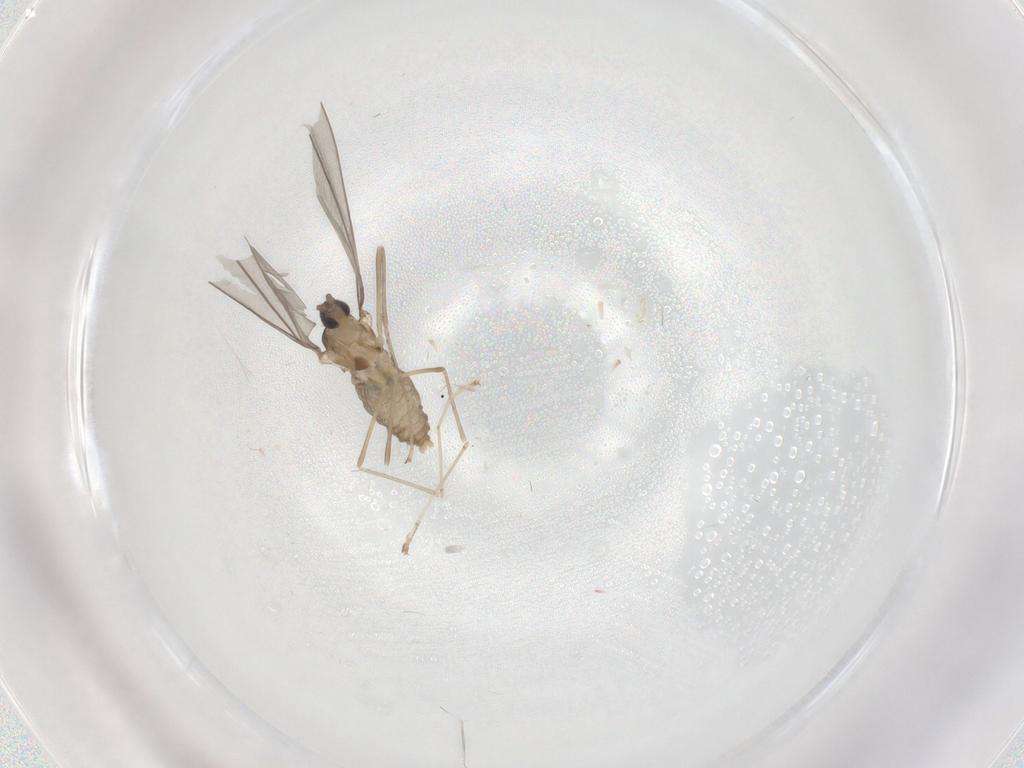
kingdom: Animalia
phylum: Arthropoda
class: Insecta
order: Diptera
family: Cecidomyiidae
